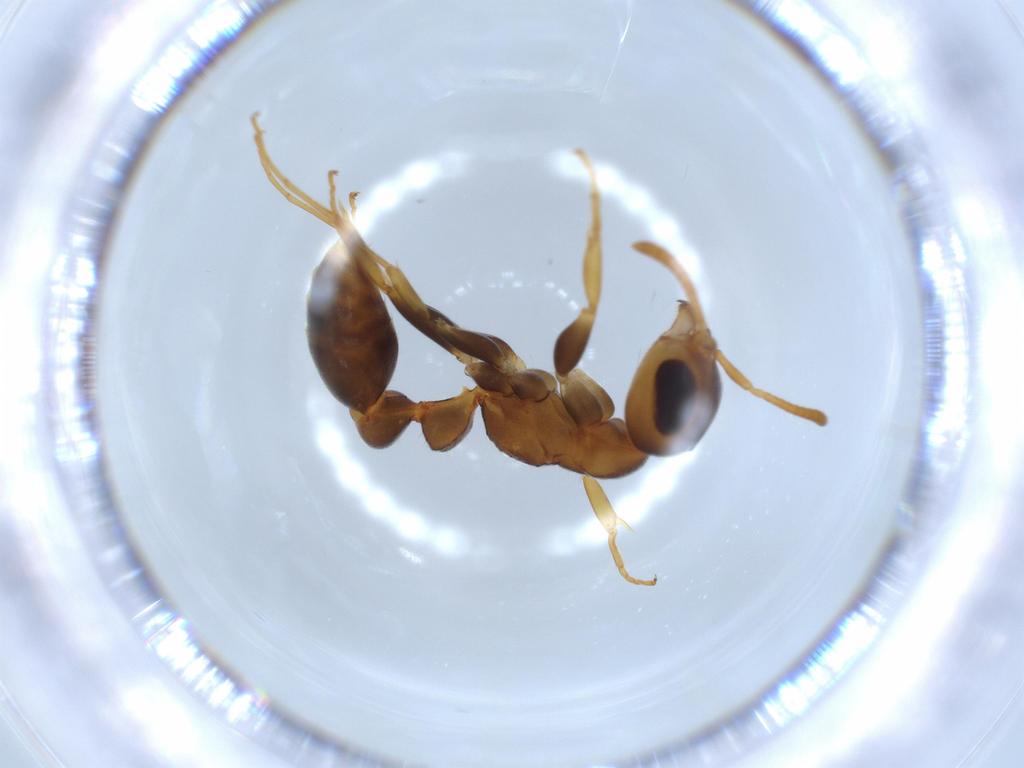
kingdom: Animalia
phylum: Arthropoda
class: Insecta
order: Hymenoptera
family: Formicidae
